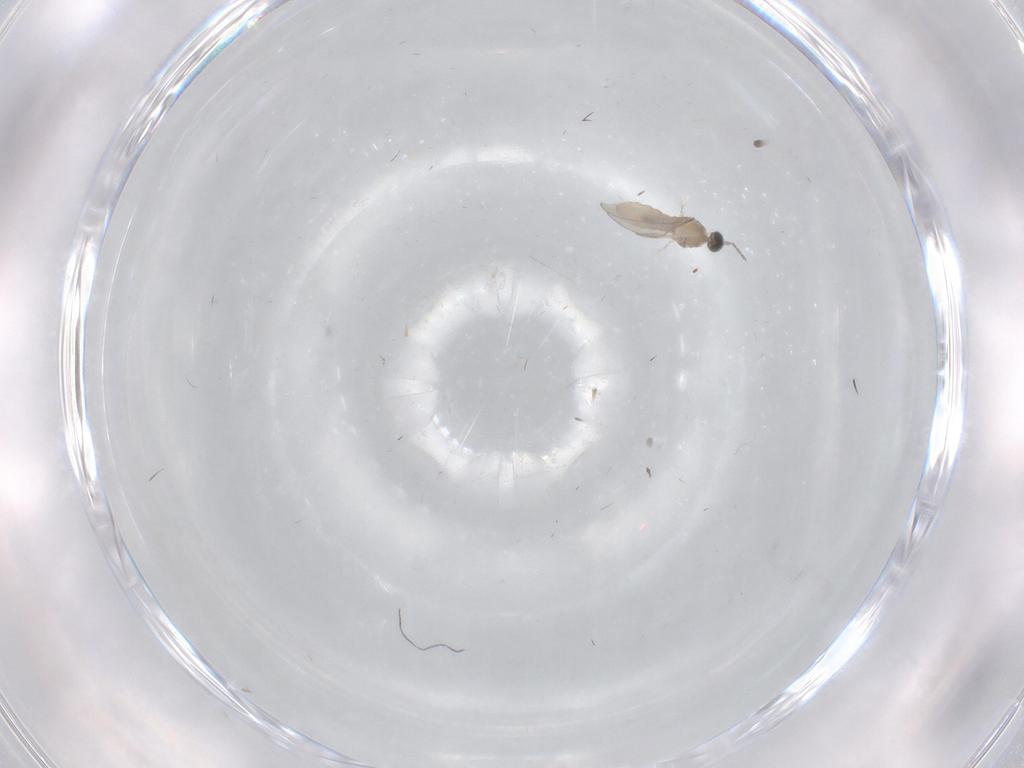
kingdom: Animalia
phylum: Arthropoda
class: Insecta
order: Diptera
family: Cecidomyiidae
